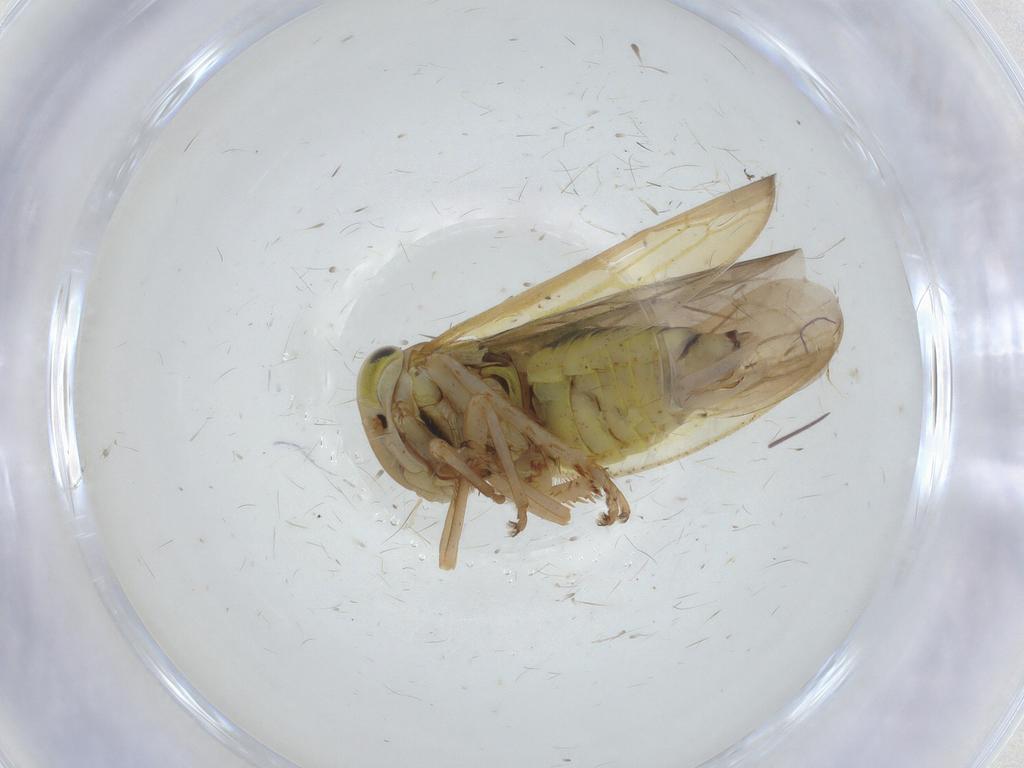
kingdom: Animalia
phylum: Arthropoda
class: Insecta
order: Hemiptera
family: Cicadellidae
